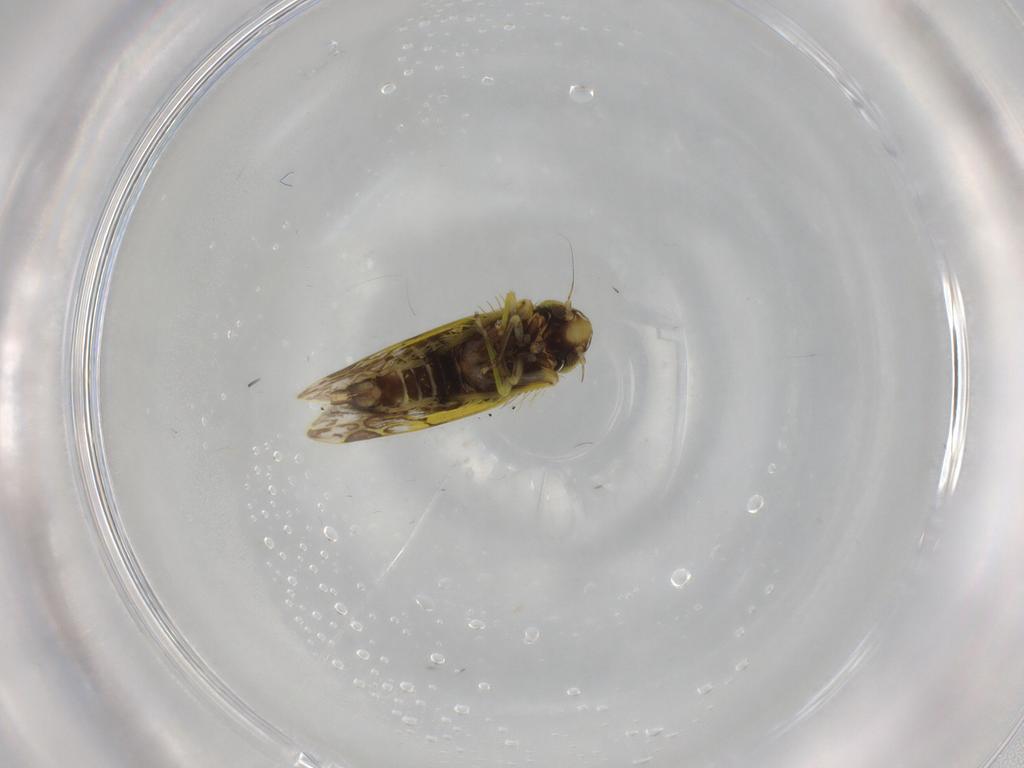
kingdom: Animalia
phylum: Arthropoda
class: Insecta
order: Hemiptera
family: Cicadellidae
